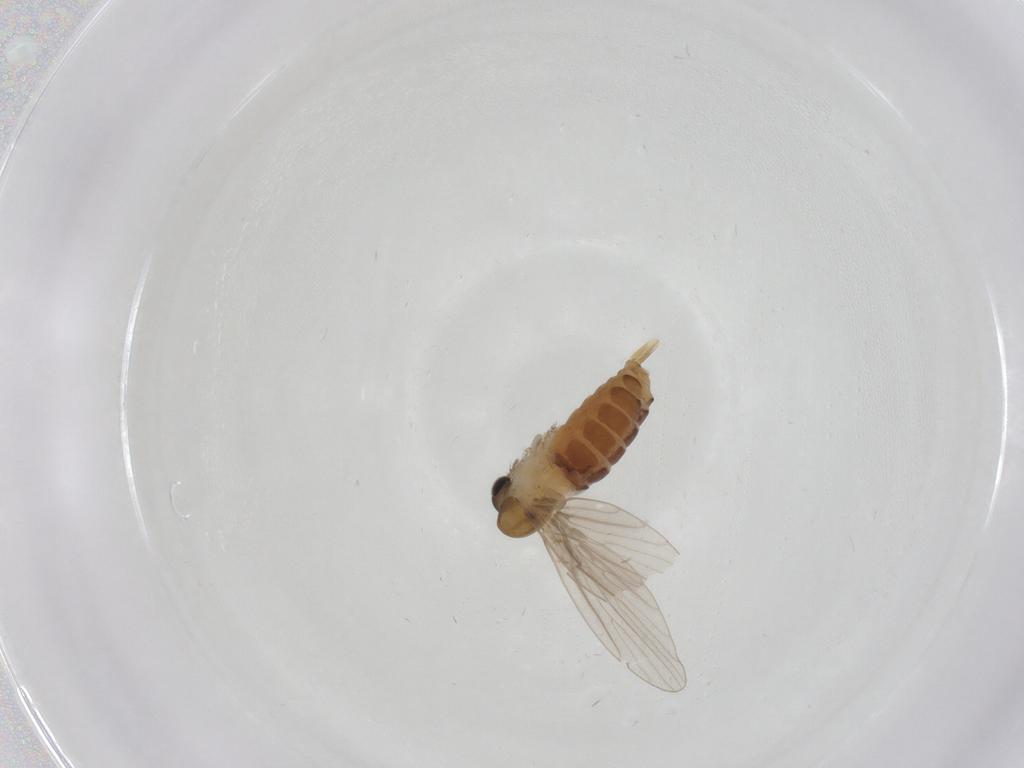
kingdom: Animalia
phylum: Arthropoda
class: Insecta
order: Diptera
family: Psychodidae
